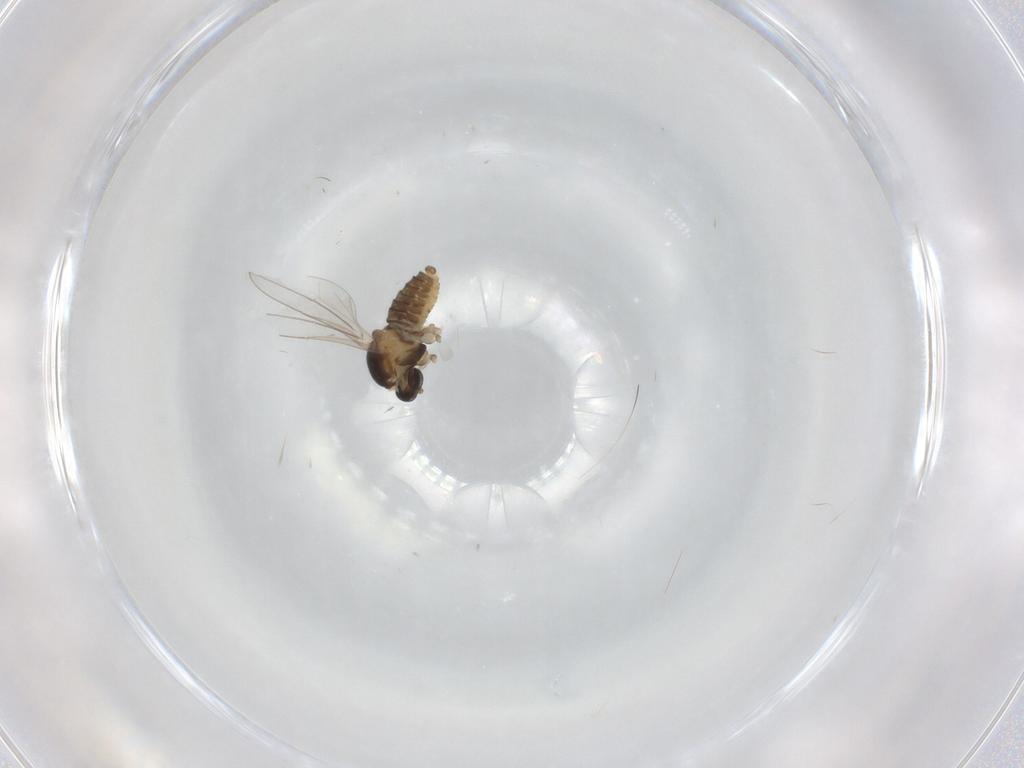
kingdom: Animalia
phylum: Arthropoda
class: Insecta
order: Diptera
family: Cecidomyiidae
